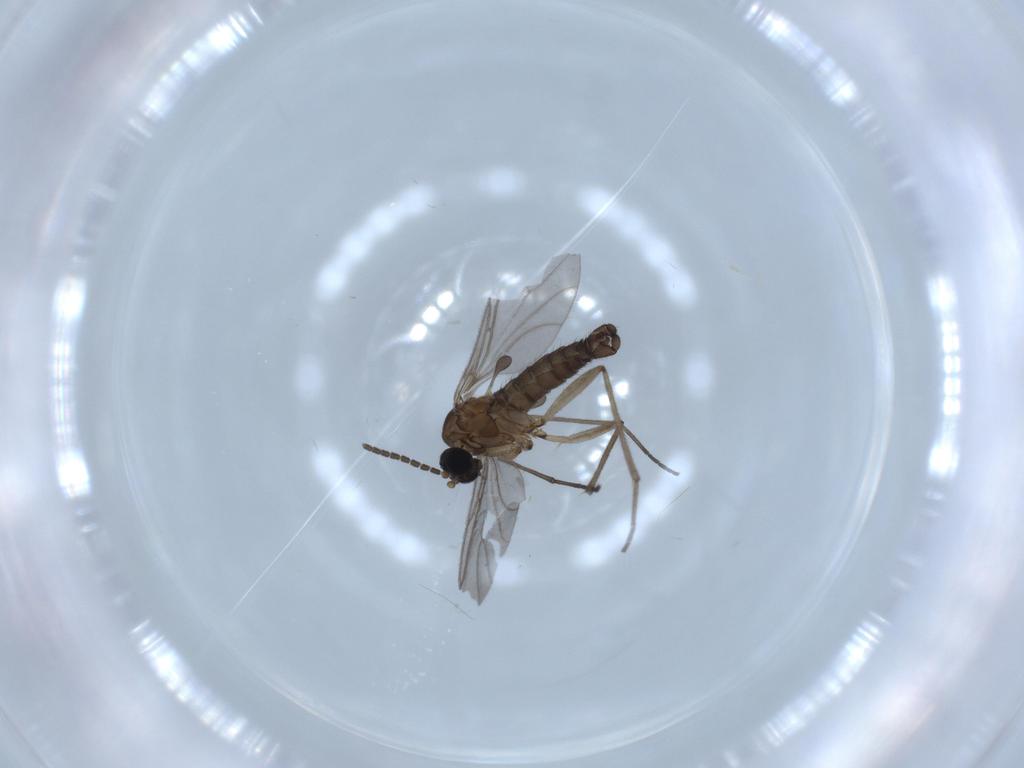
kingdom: Animalia
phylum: Arthropoda
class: Insecta
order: Diptera
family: Sciaridae
